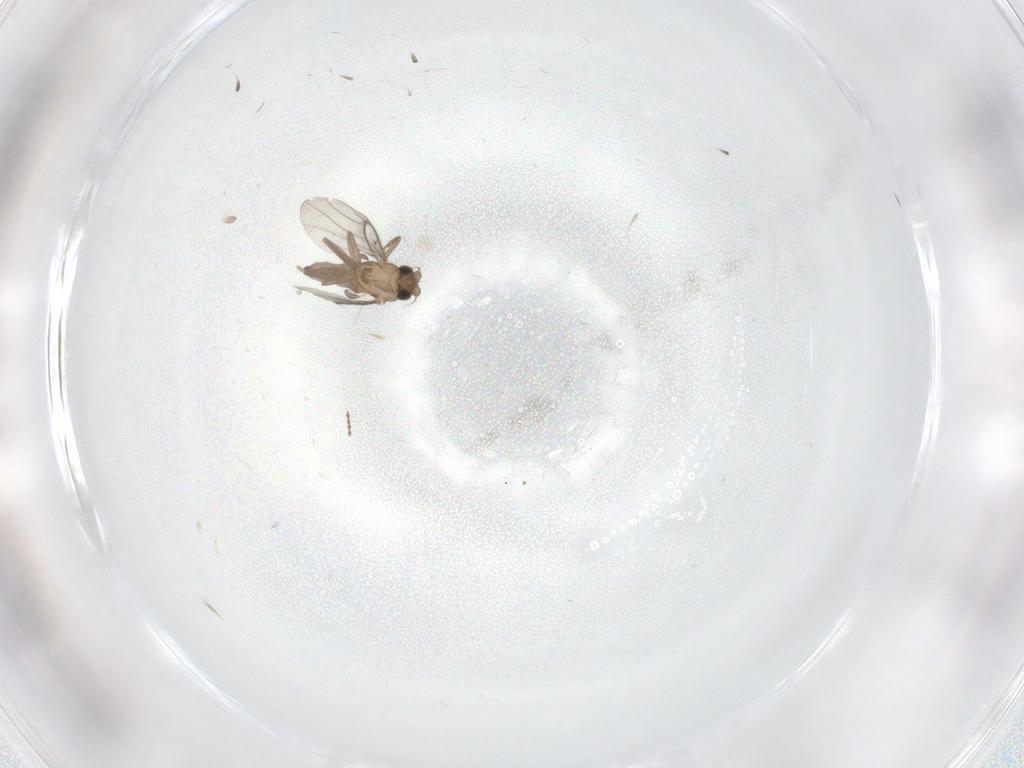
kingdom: Animalia
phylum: Arthropoda
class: Insecta
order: Diptera
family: Cecidomyiidae
